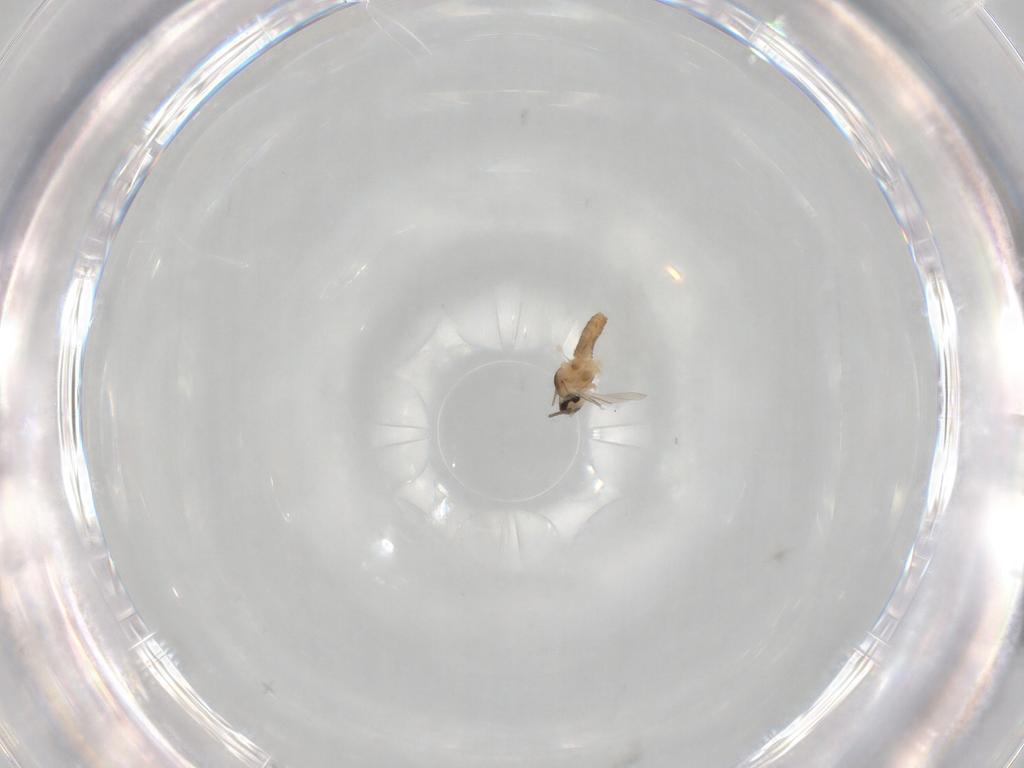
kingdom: Animalia
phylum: Arthropoda
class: Insecta
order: Diptera
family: Cecidomyiidae
